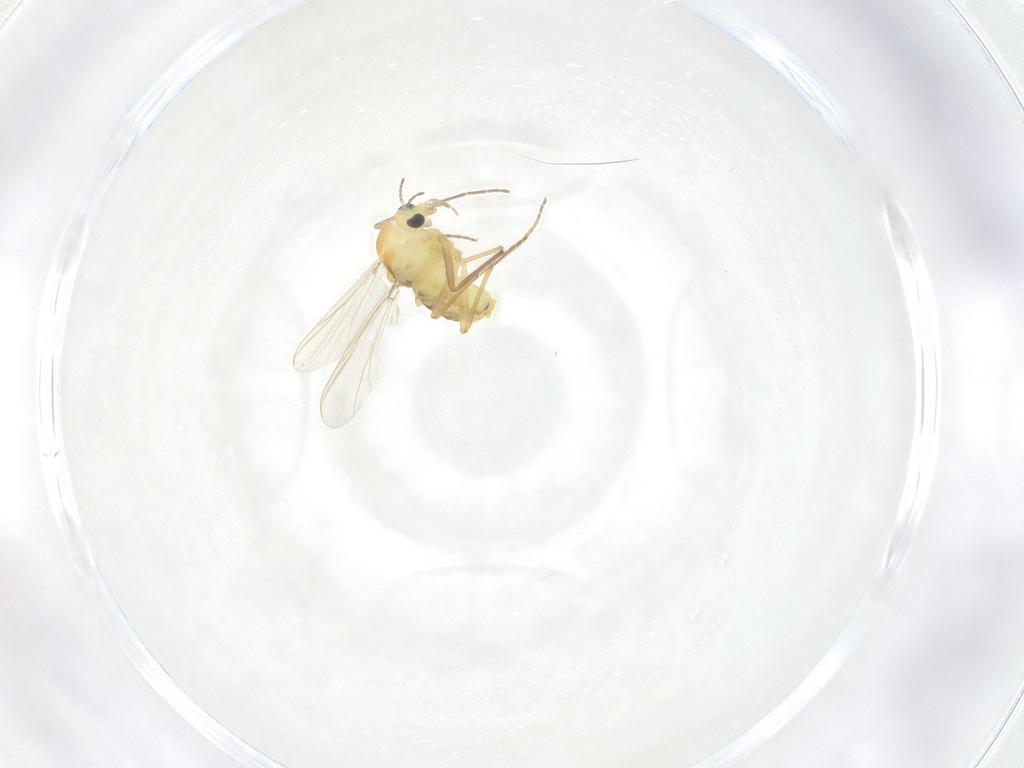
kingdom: Animalia
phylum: Arthropoda
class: Insecta
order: Diptera
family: Chironomidae
